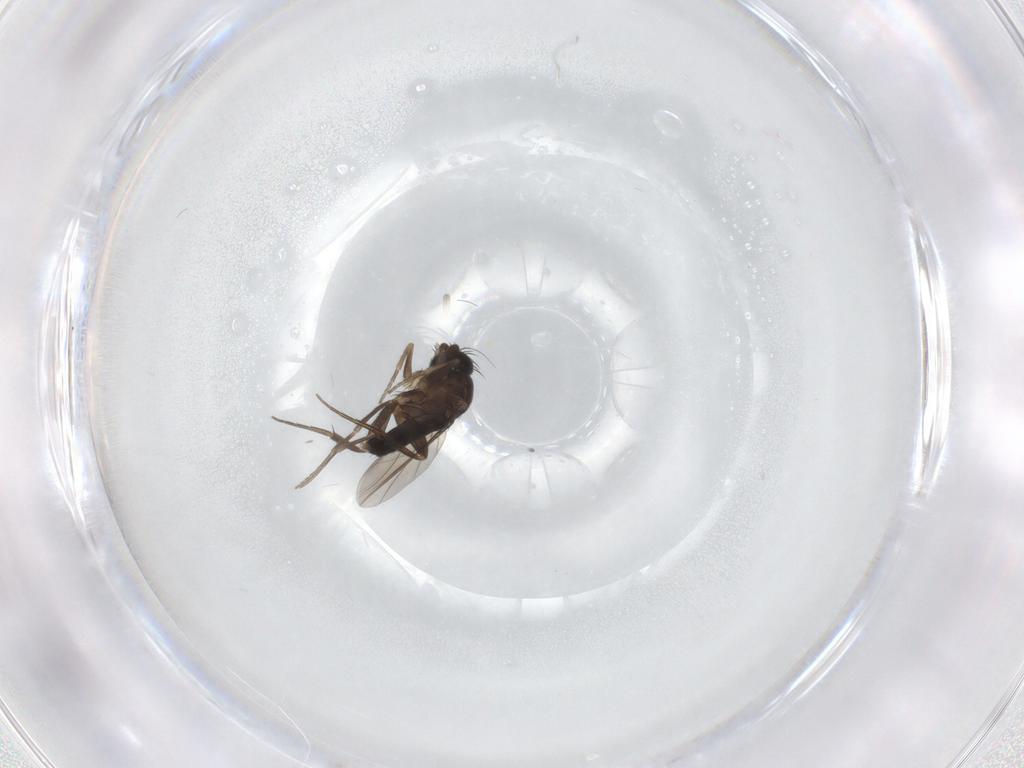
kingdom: Animalia
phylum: Arthropoda
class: Insecta
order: Diptera
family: Phoridae
